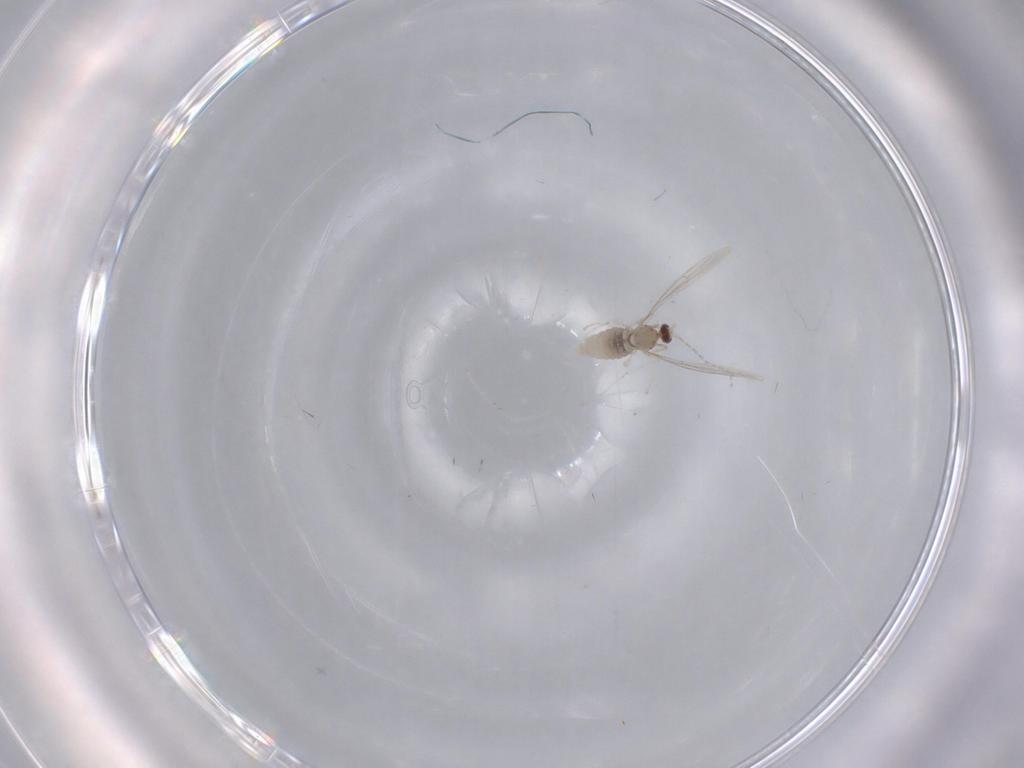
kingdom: Animalia
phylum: Arthropoda
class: Insecta
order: Diptera
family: Cecidomyiidae
